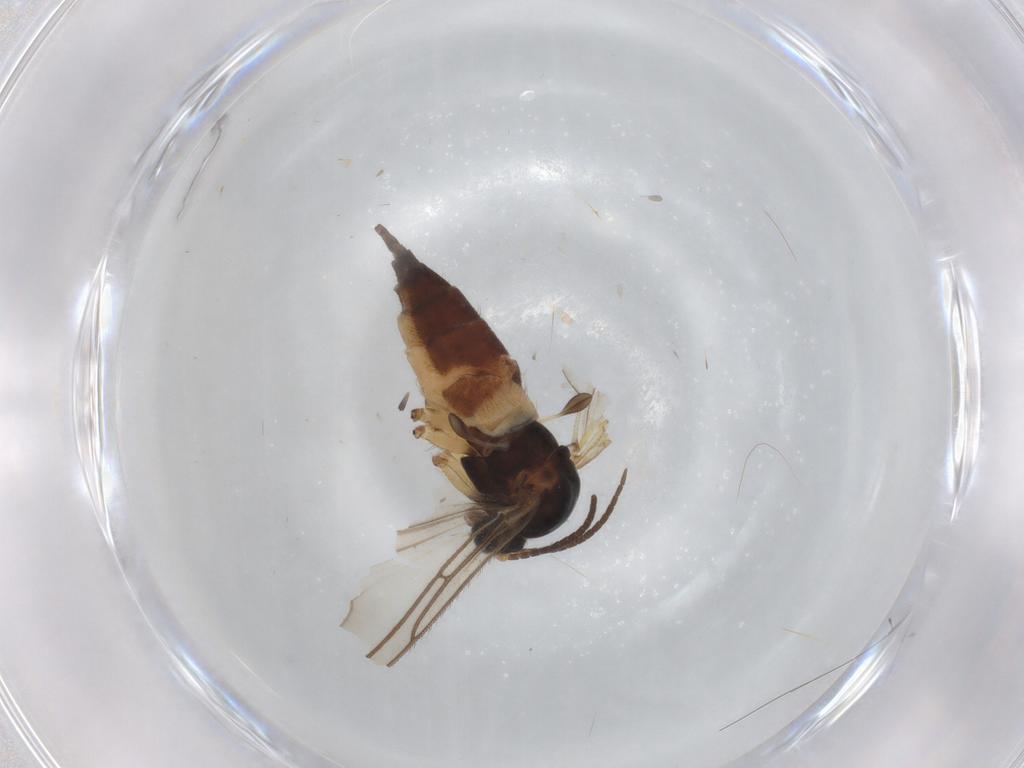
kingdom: Animalia
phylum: Arthropoda
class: Insecta
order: Diptera
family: Sciaridae
